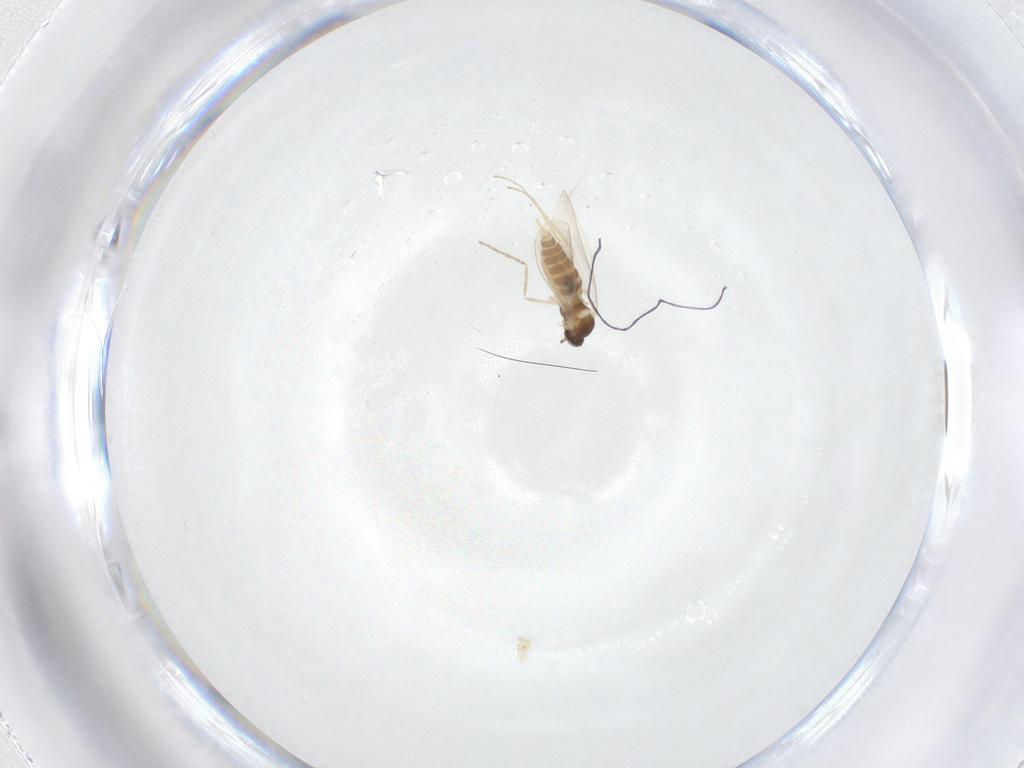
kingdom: Animalia
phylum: Arthropoda
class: Insecta
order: Diptera
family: Cecidomyiidae
